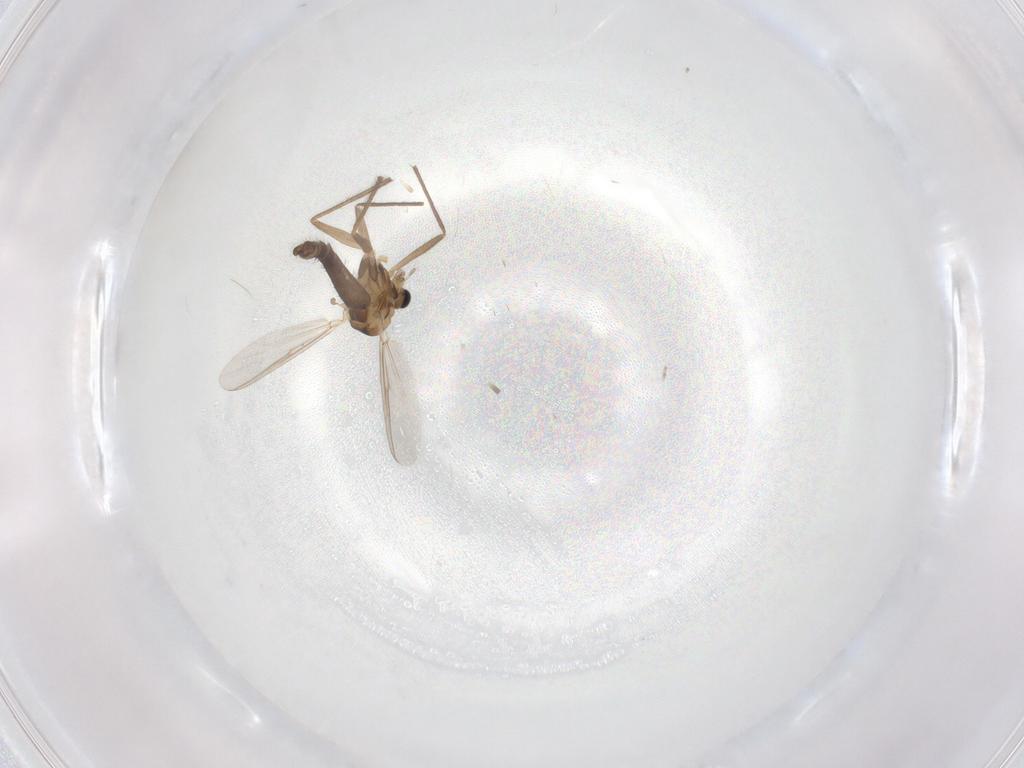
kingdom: Animalia
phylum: Arthropoda
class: Insecta
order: Diptera
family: Chironomidae
